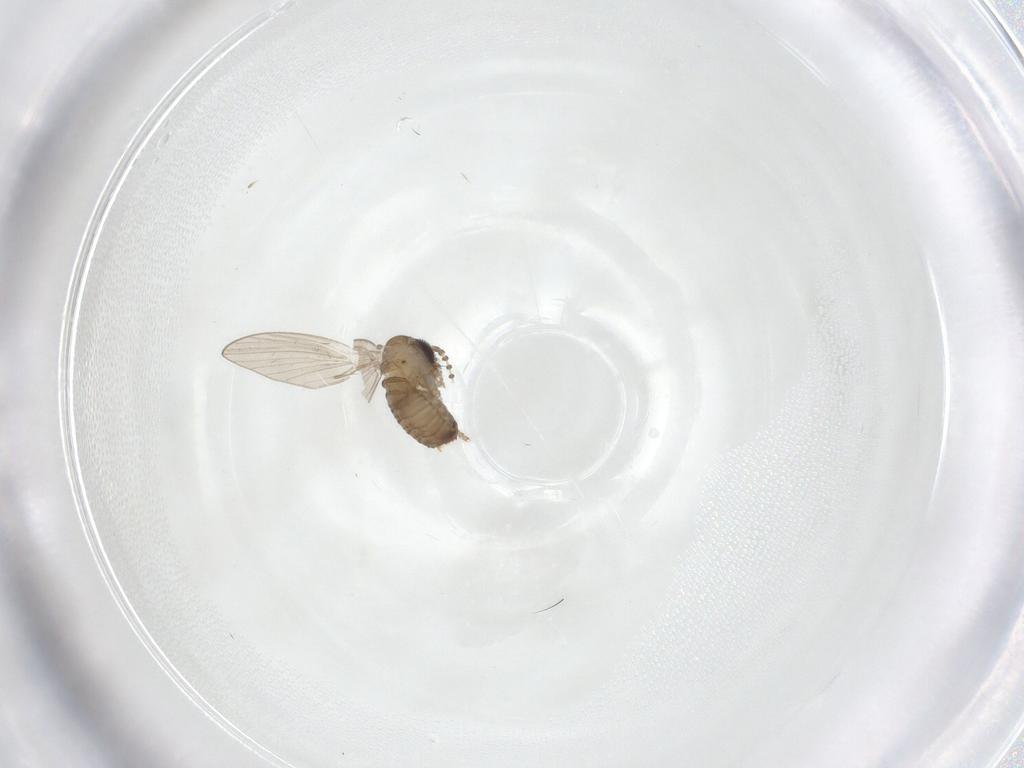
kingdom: Animalia
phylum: Arthropoda
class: Insecta
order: Diptera
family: Psychodidae
